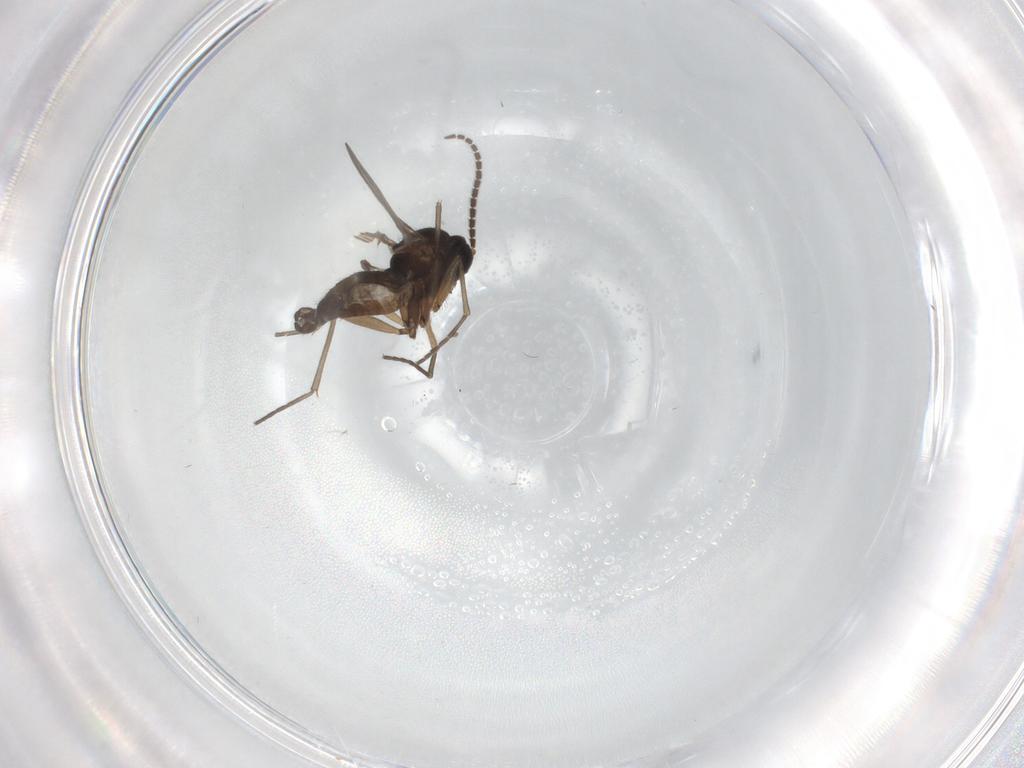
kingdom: Animalia
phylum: Arthropoda
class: Insecta
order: Diptera
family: Sciaridae
